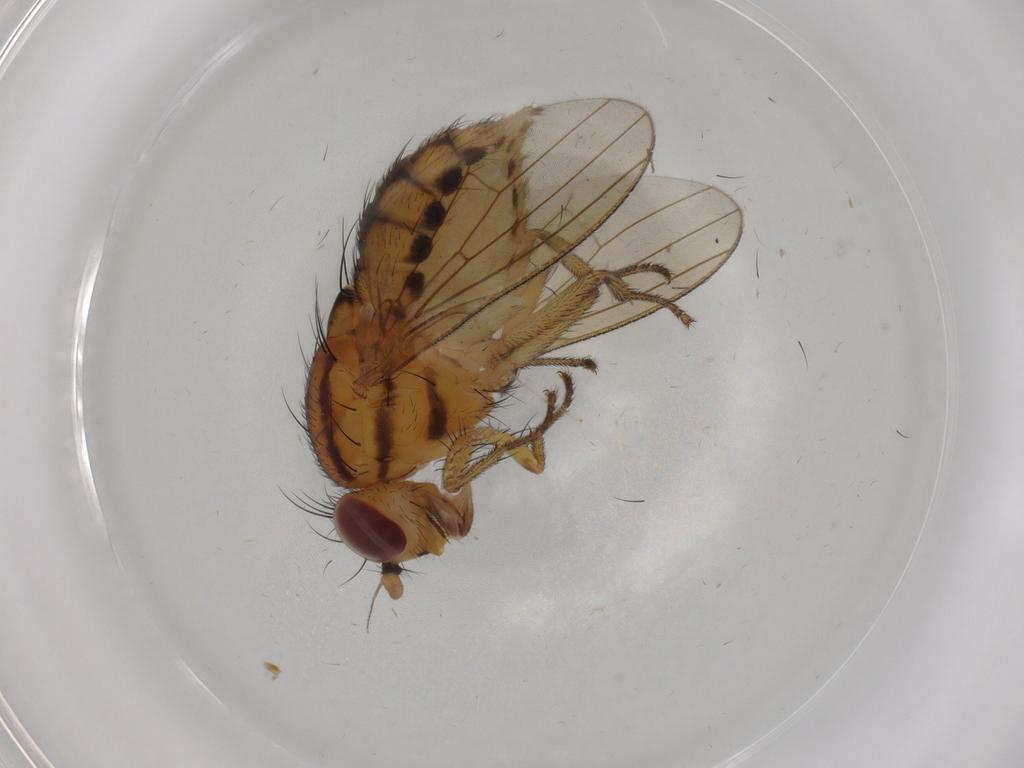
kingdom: Animalia
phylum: Arthropoda
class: Insecta
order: Diptera
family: Sciaridae
